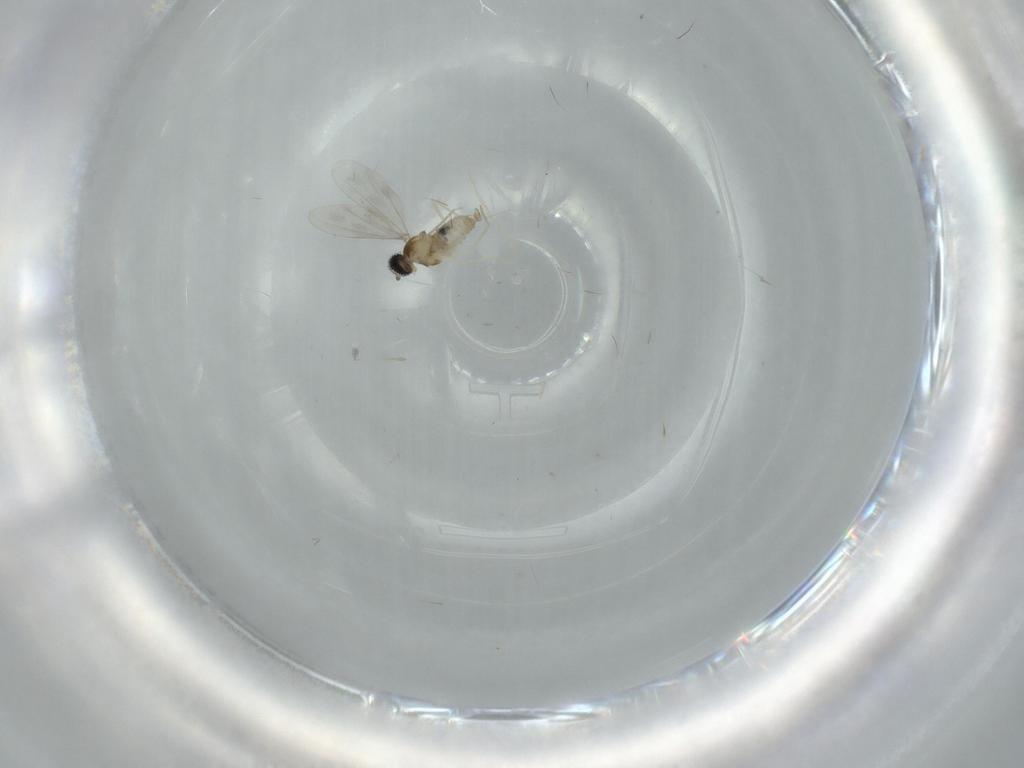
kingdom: Animalia
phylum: Arthropoda
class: Insecta
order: Diptera
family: Cecidomyiidae
